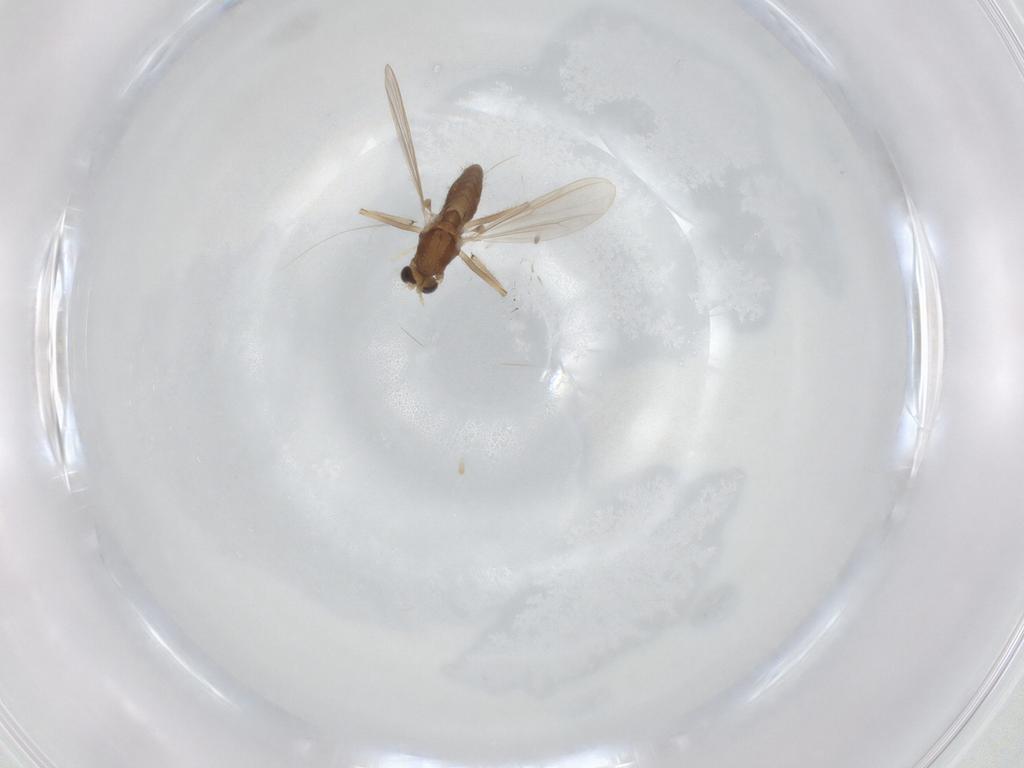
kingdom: Animalia
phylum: Arthropoda
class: Insecta
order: Diptera
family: Chironomidae
